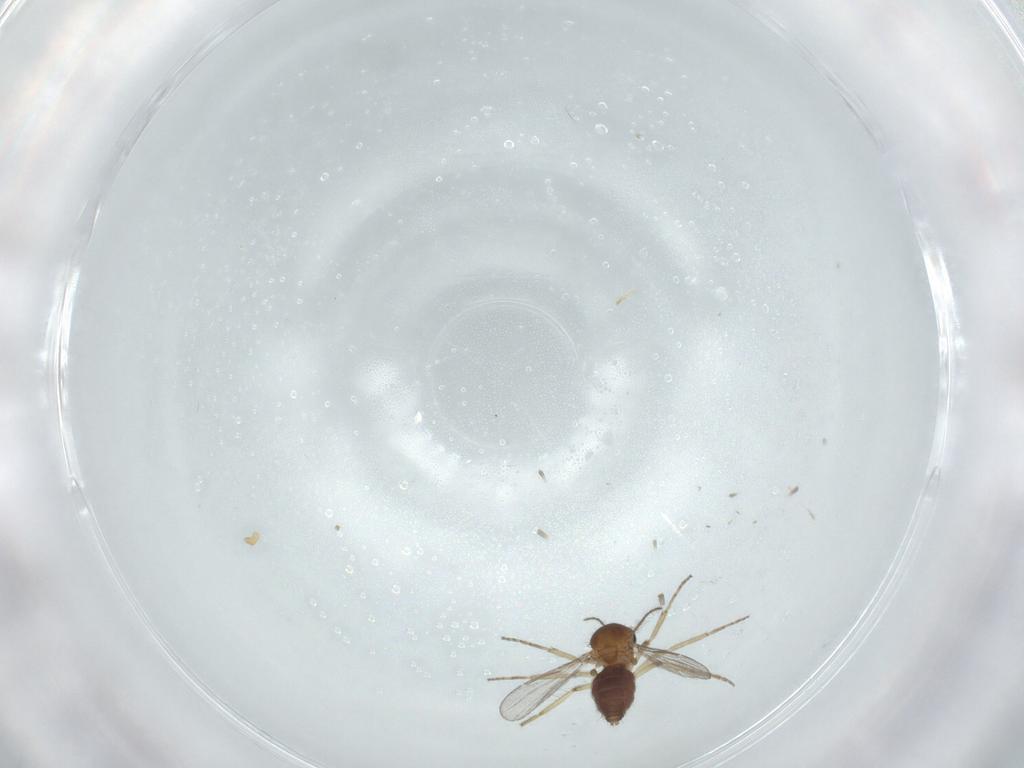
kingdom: Animalia
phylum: Arthropoda
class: Insecta
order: Diptera
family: Ceratopogonidae
